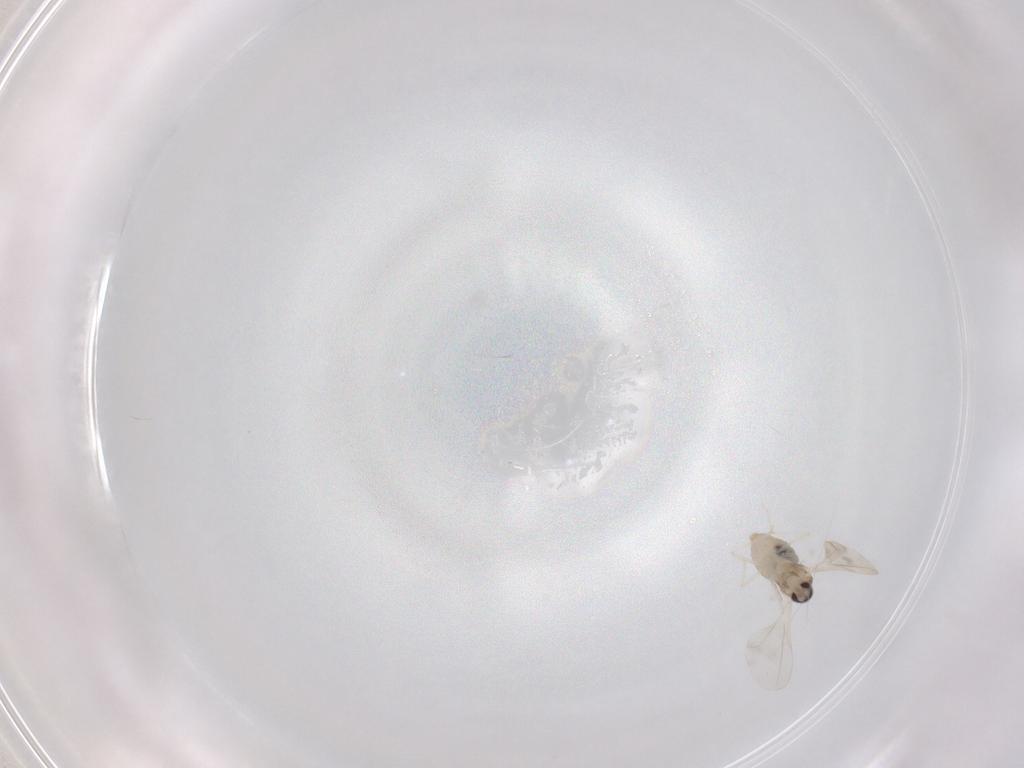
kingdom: Animalia
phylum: Arthropoda
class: Insecta
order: Diptera
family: Cecidomyiidae
